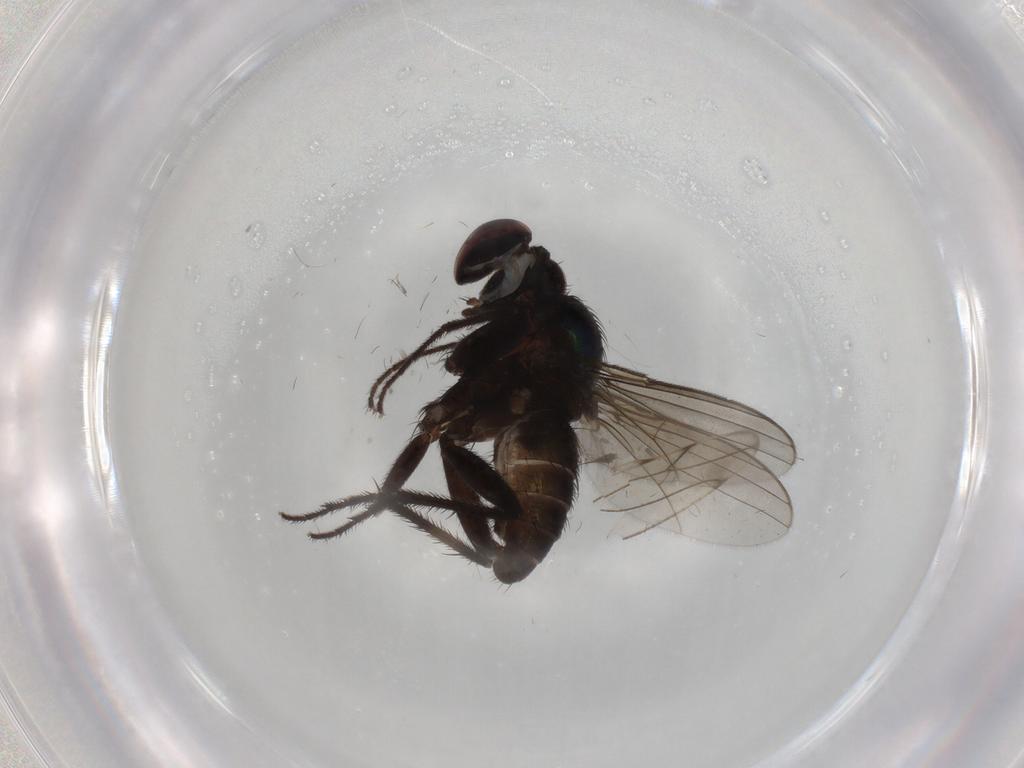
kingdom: Animalia
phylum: Arthropoda
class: Insecta
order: Diptera
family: Dolichopodidae
